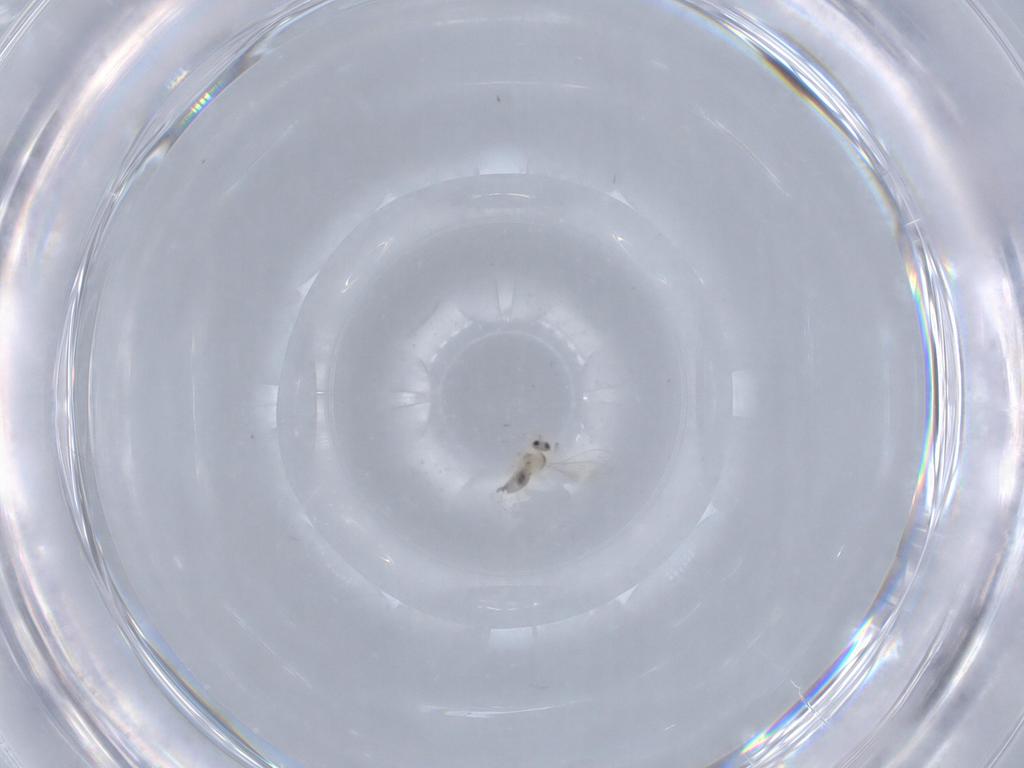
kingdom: Animalia
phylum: Arthropoda
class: Insecta
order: Diptera
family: Cecidomyiidae
